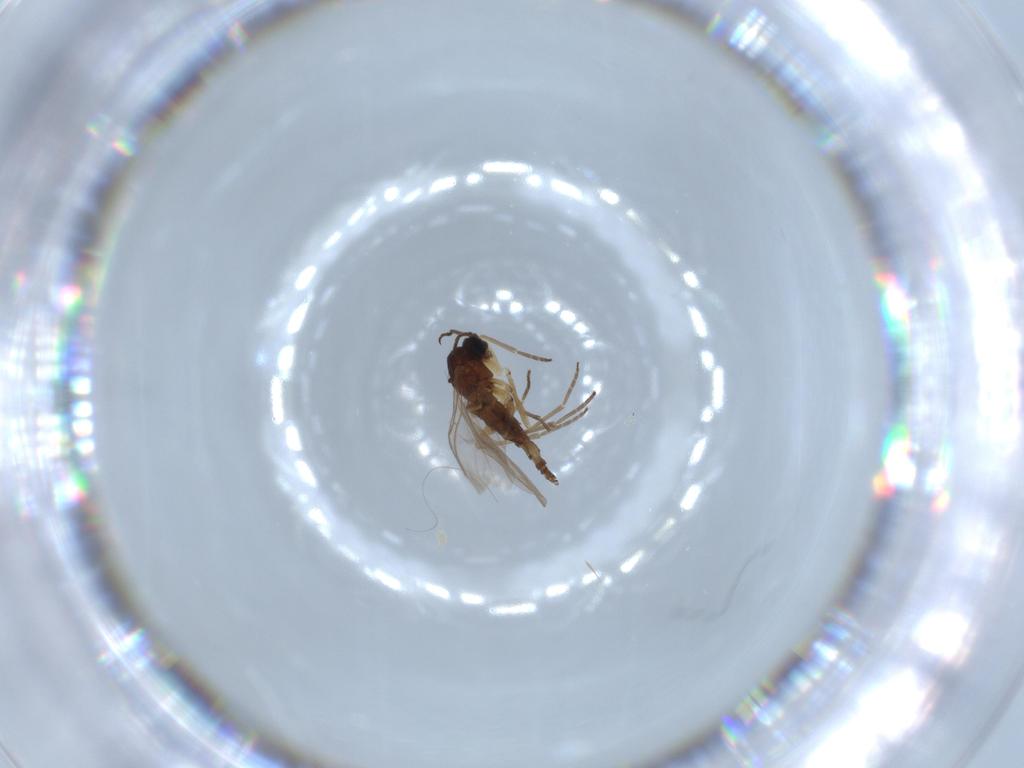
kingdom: Animalia
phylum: Arthropoda
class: Insecta
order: Diptera
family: Sciaridae
